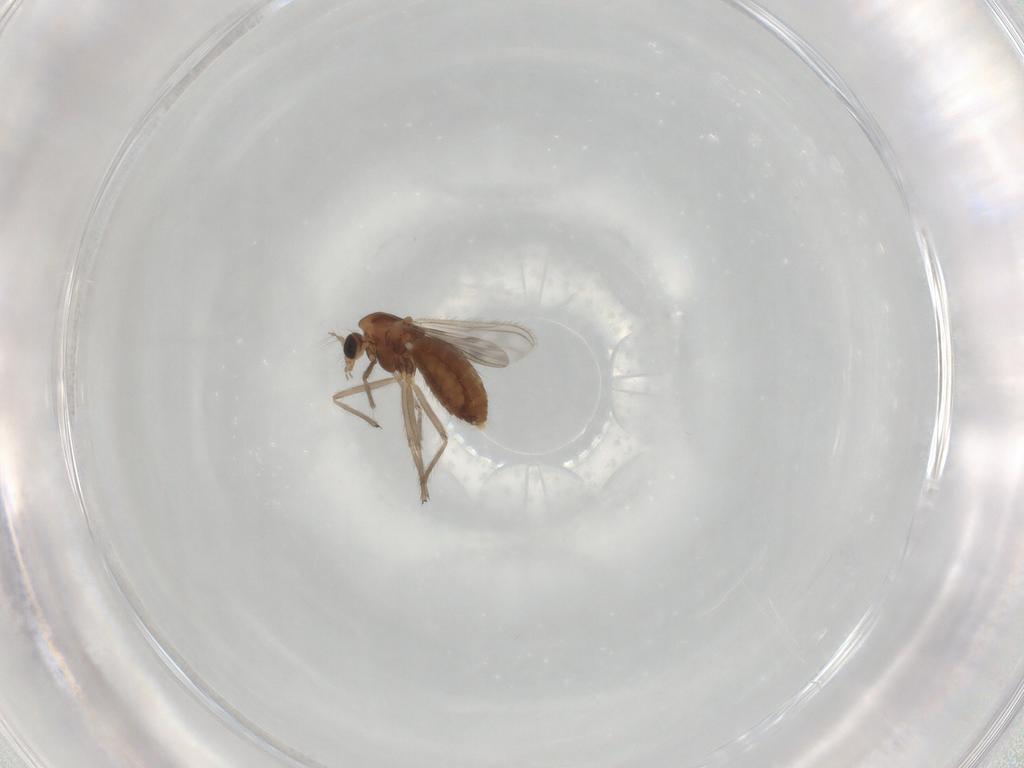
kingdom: Animalia
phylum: Arthropoda
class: Insecta
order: Diptera
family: Chironomidae
